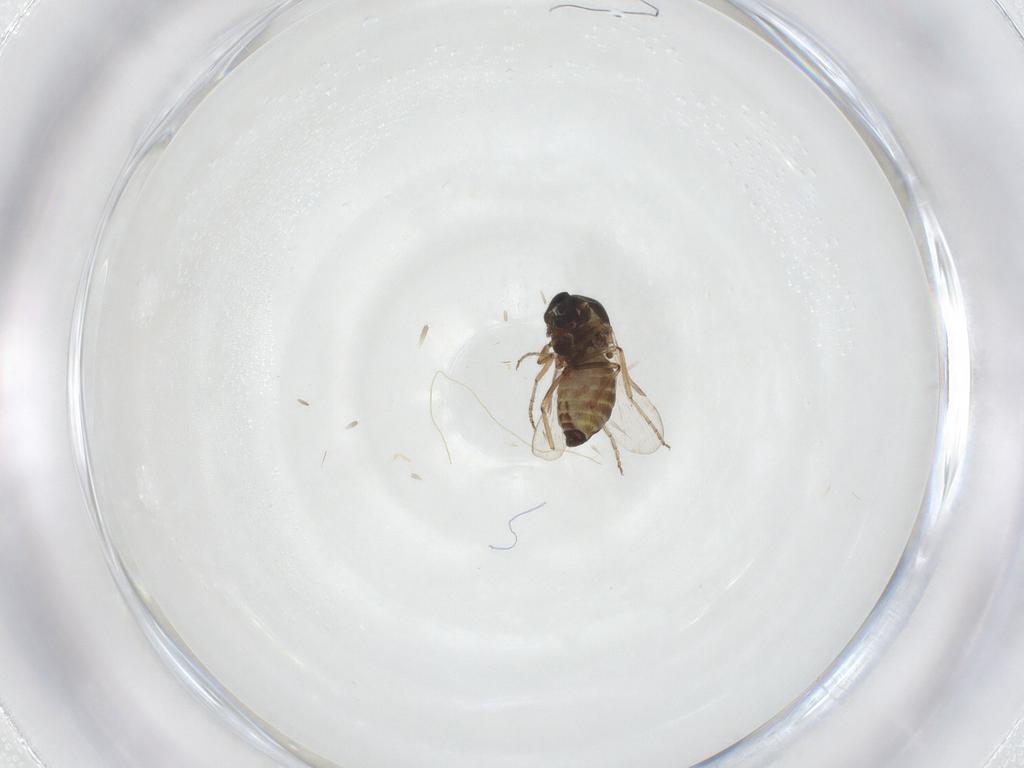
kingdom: Animalia
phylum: Arthropoda
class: Insecta
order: Diptera
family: Ceratopogonidae
